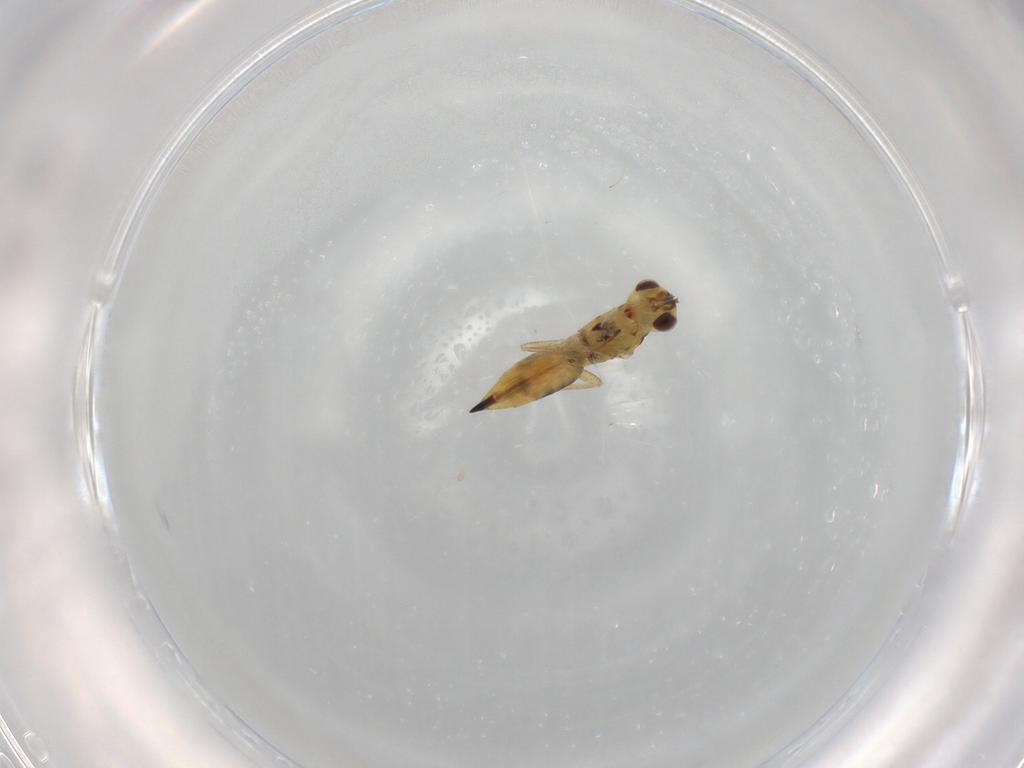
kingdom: Animalia
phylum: Arthropoda
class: Insecta
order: Hymenoptera
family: Eulophidae
